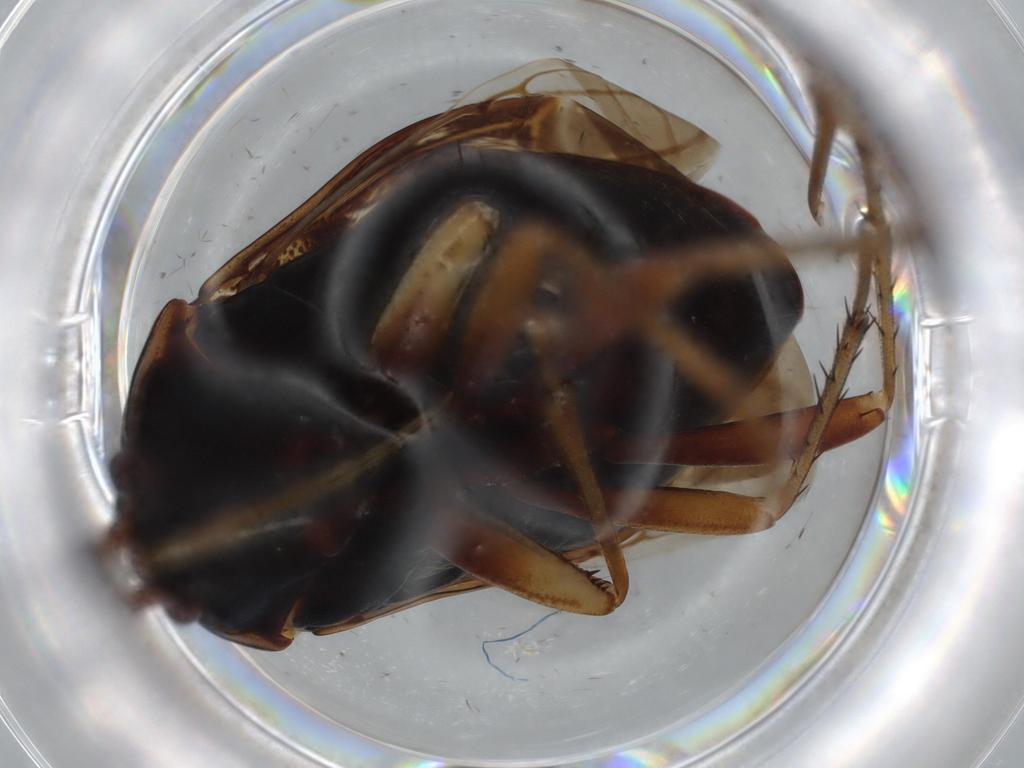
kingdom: Animalia
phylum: Arthropoda
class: Insecta
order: Hemiptera
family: Rhyparochromidae
